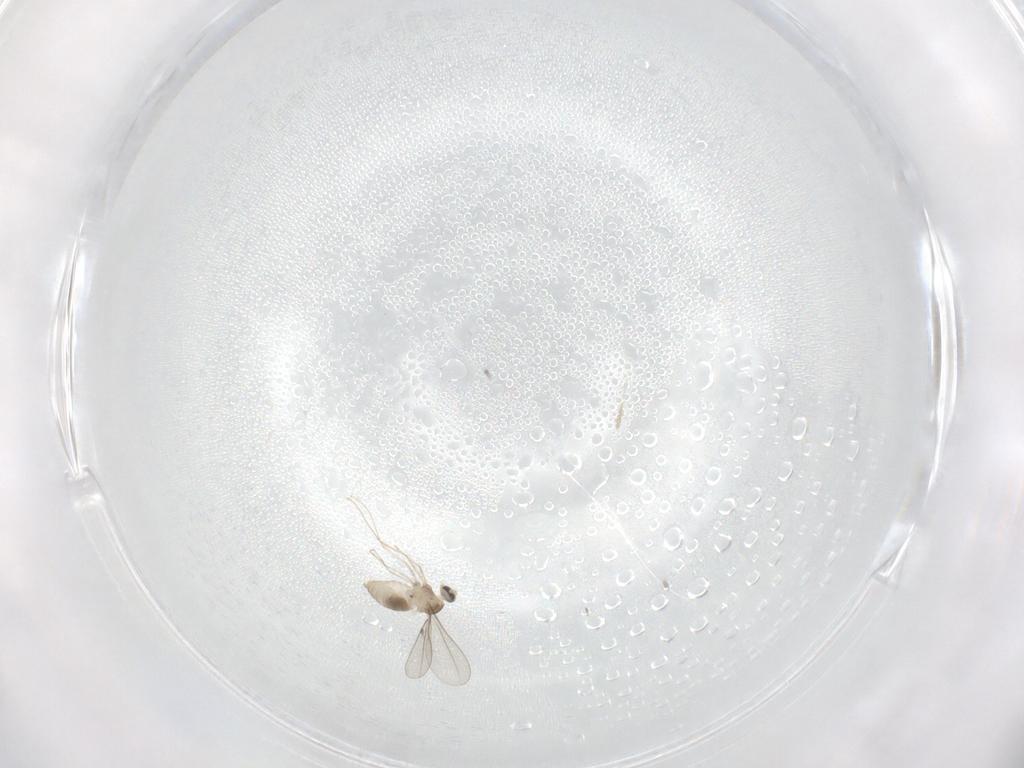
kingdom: Animalia
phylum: Arthropoda
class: Insecta
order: Diptera
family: Cecidomyiidae
